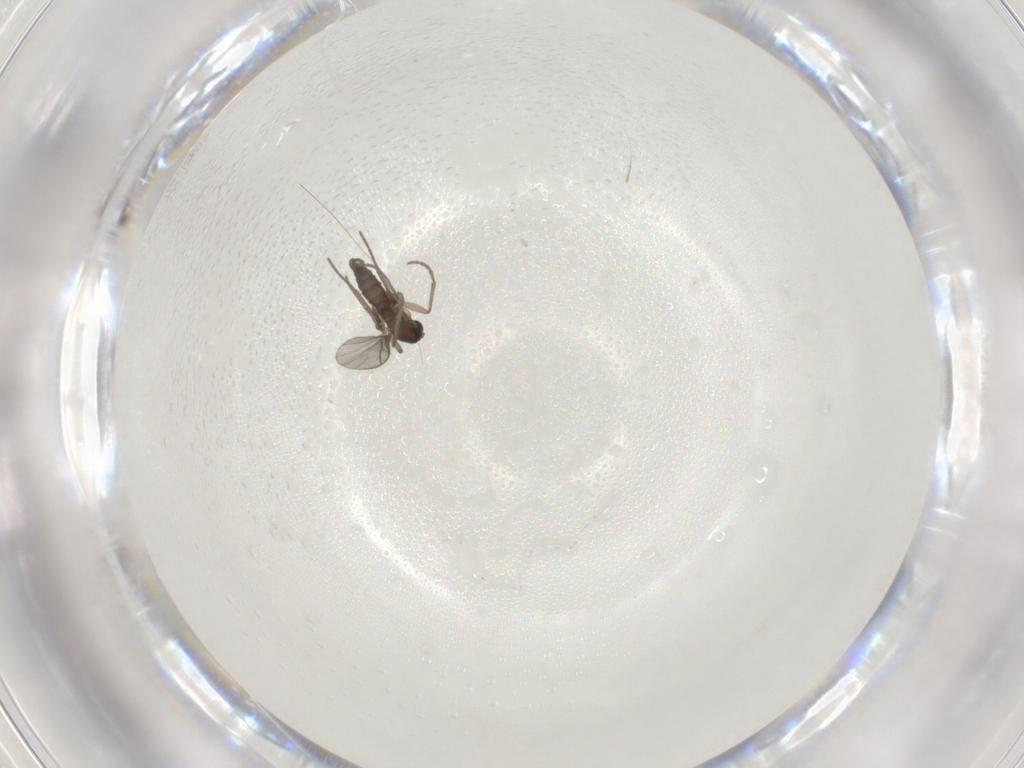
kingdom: Animalia
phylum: Arthropoda
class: Insecta
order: Diptera
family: Sciaridae
